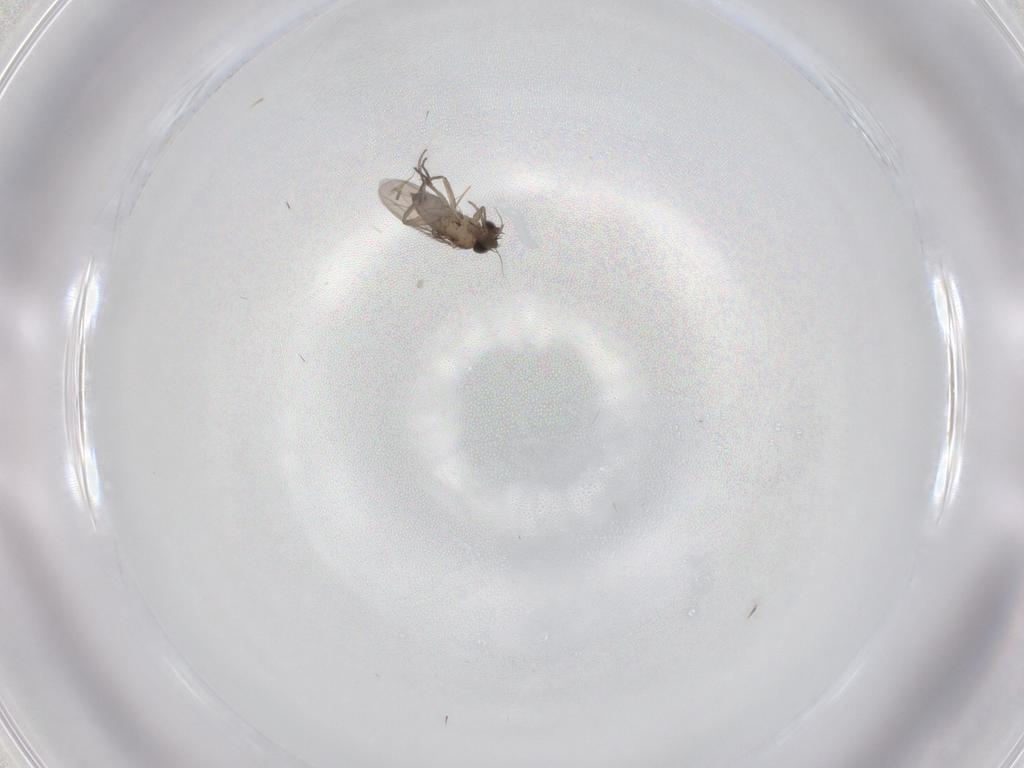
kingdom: Animalia
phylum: Arthropoda
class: Insecta
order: Diptera
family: Phoridae
